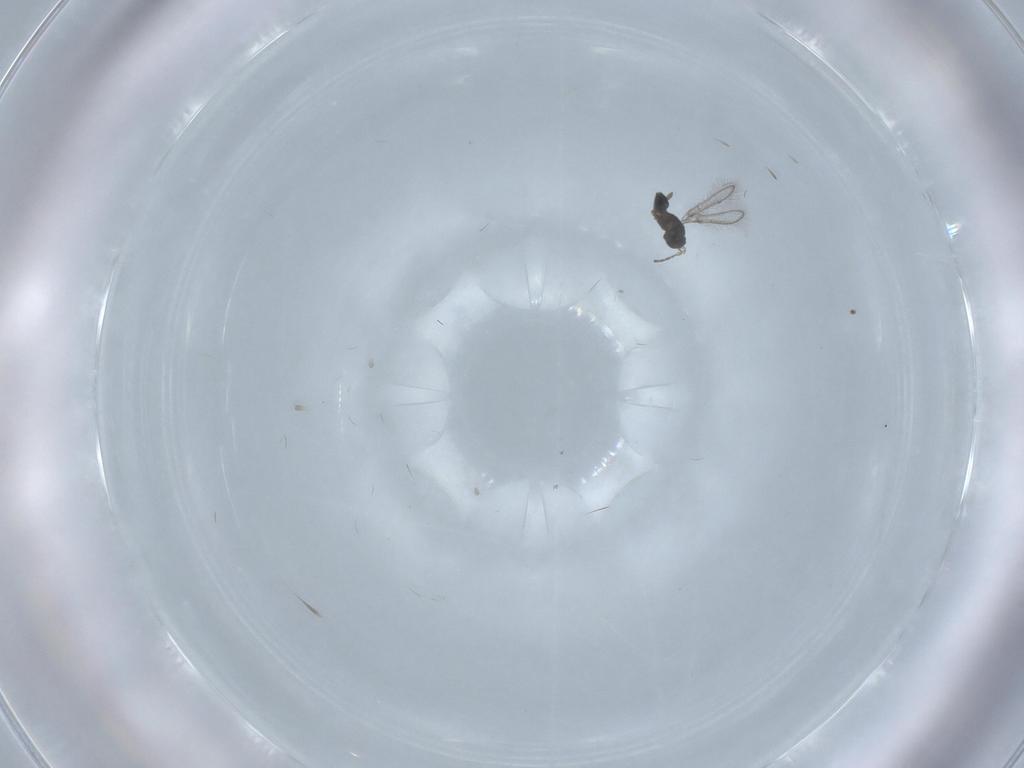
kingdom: Animalia
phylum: Arthropoda
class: Insecta
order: Hymenoptera
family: Mymaridae
